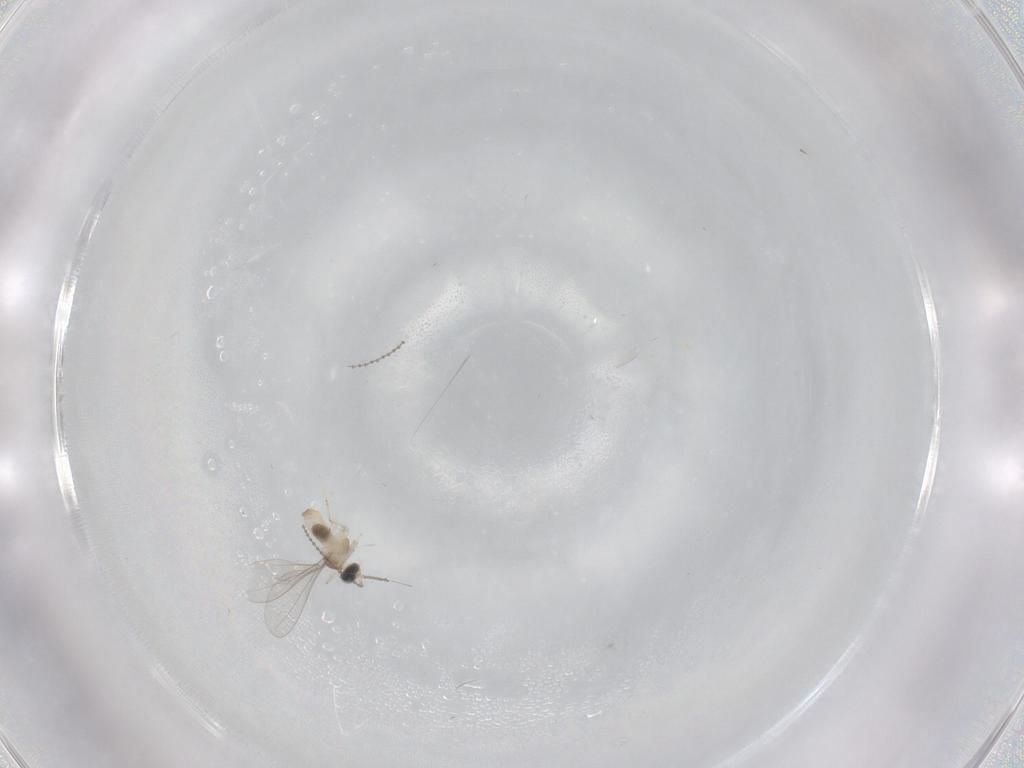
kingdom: Animalia
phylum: Arthropoda
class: Insecta
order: Diptera
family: Cecidomyiidae
